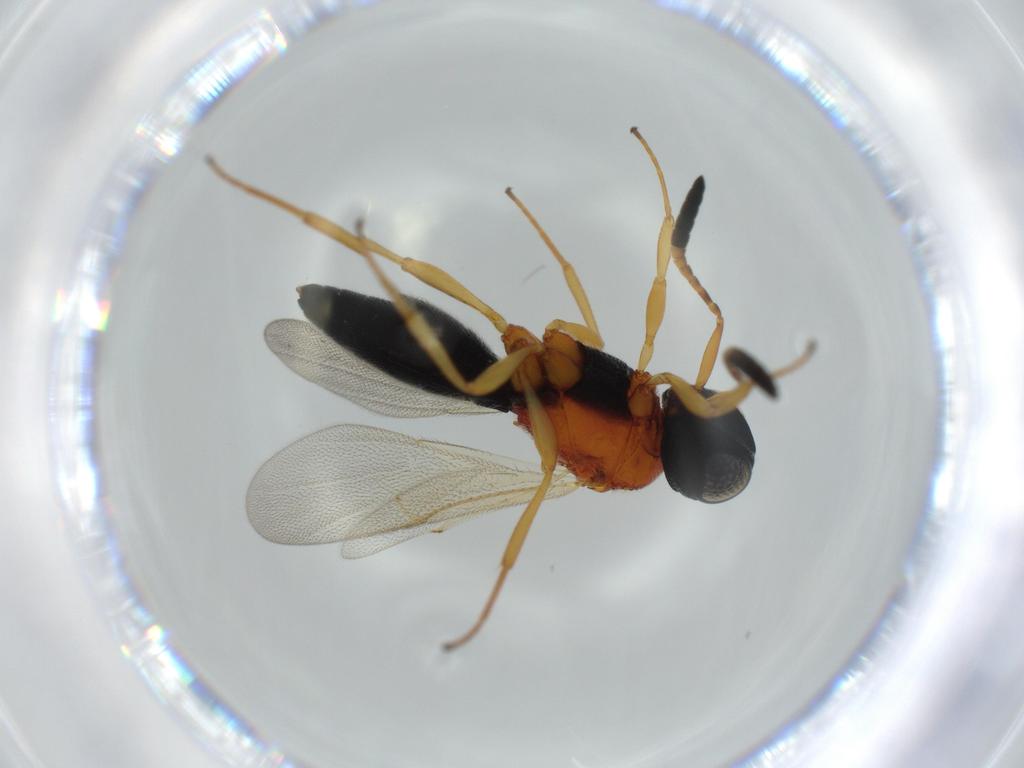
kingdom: Animalia
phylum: Arthropoda
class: Insecta
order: Hymenoptera
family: Scelionidae
